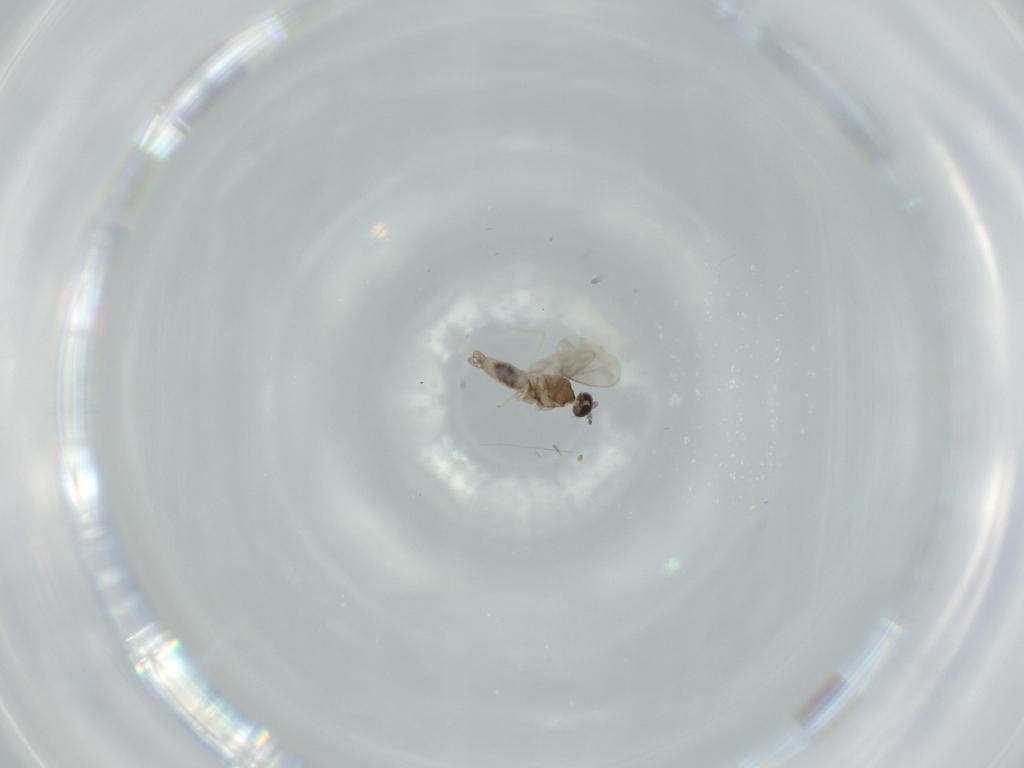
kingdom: Animalia
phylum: Arthropoda
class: Insecta
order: Diptera
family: Cecidomyiidae
